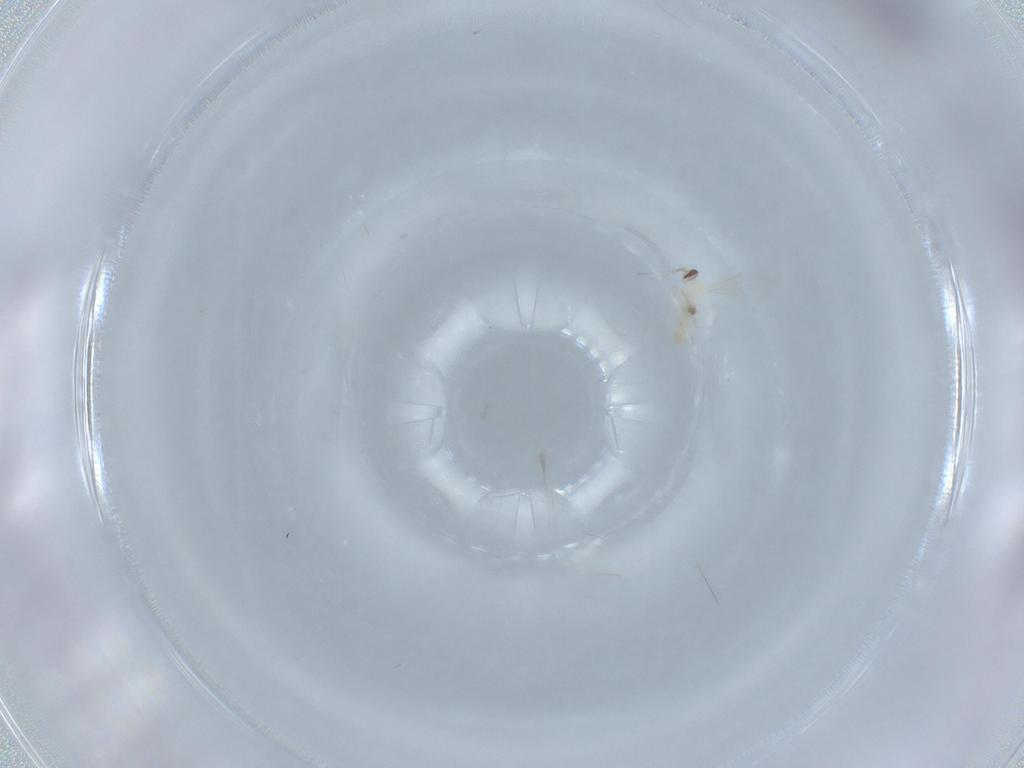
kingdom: Animalia
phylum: Arthropoda
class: Insecta
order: Diptera
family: Cecidomyiidae
